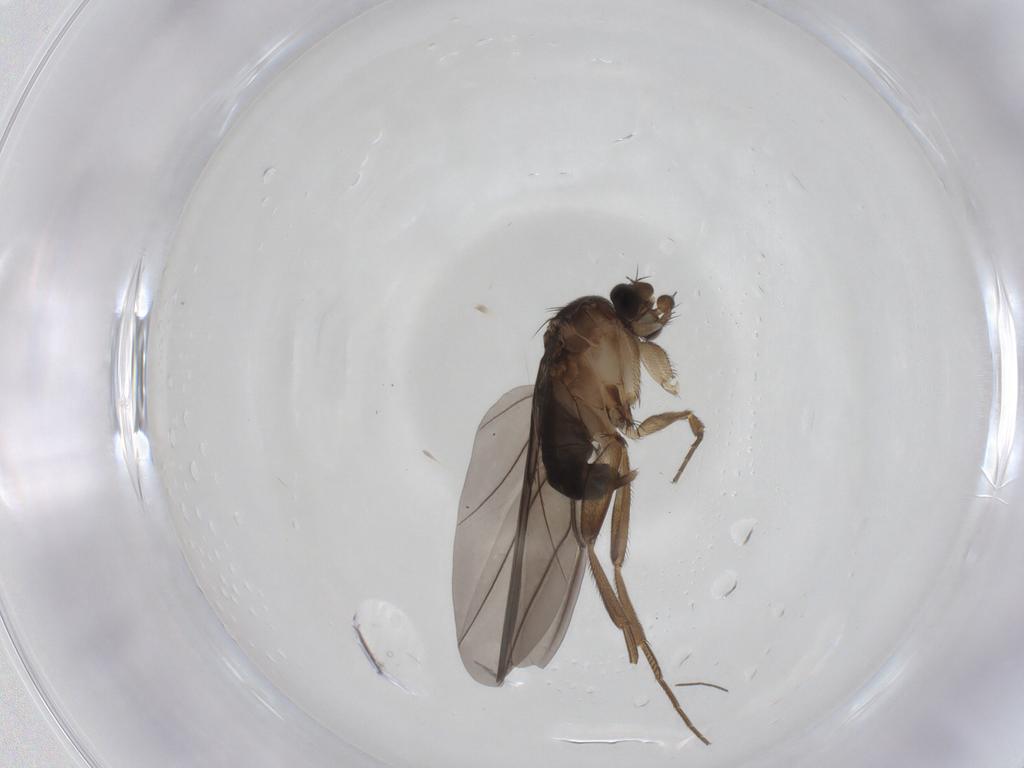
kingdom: Animalia
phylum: Arthropoda
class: Insecta
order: Diptera
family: Phoridae
